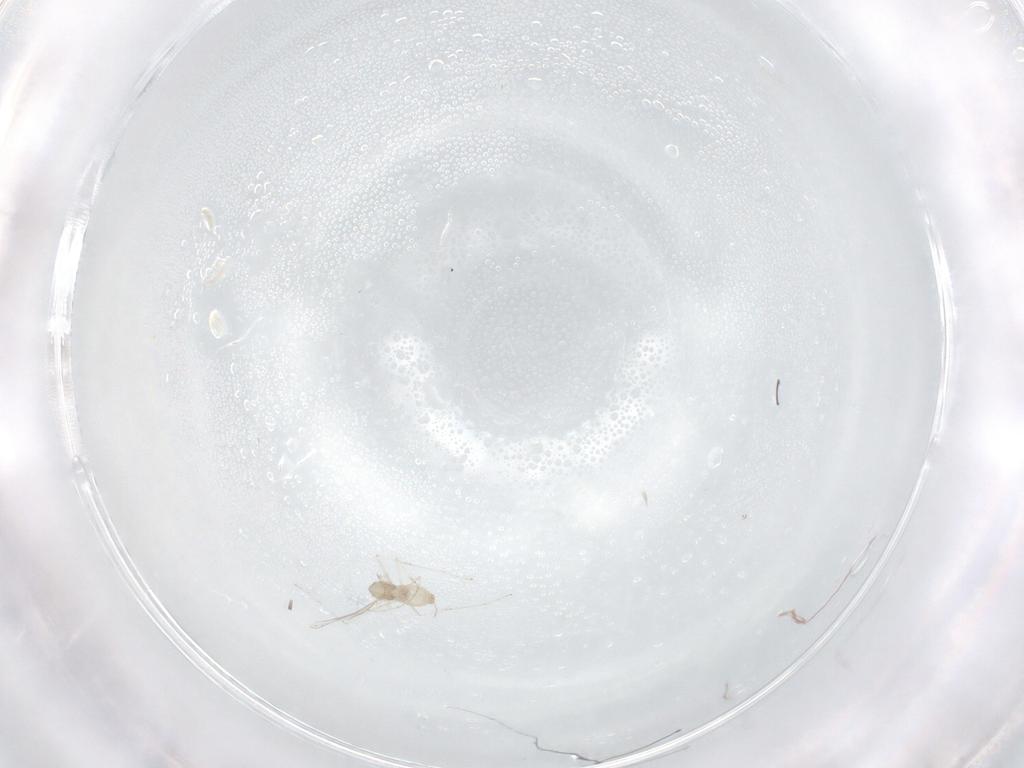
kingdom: Animalia
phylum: Arthropoda
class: Insecta
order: Diptera
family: Cecidomyiidae
